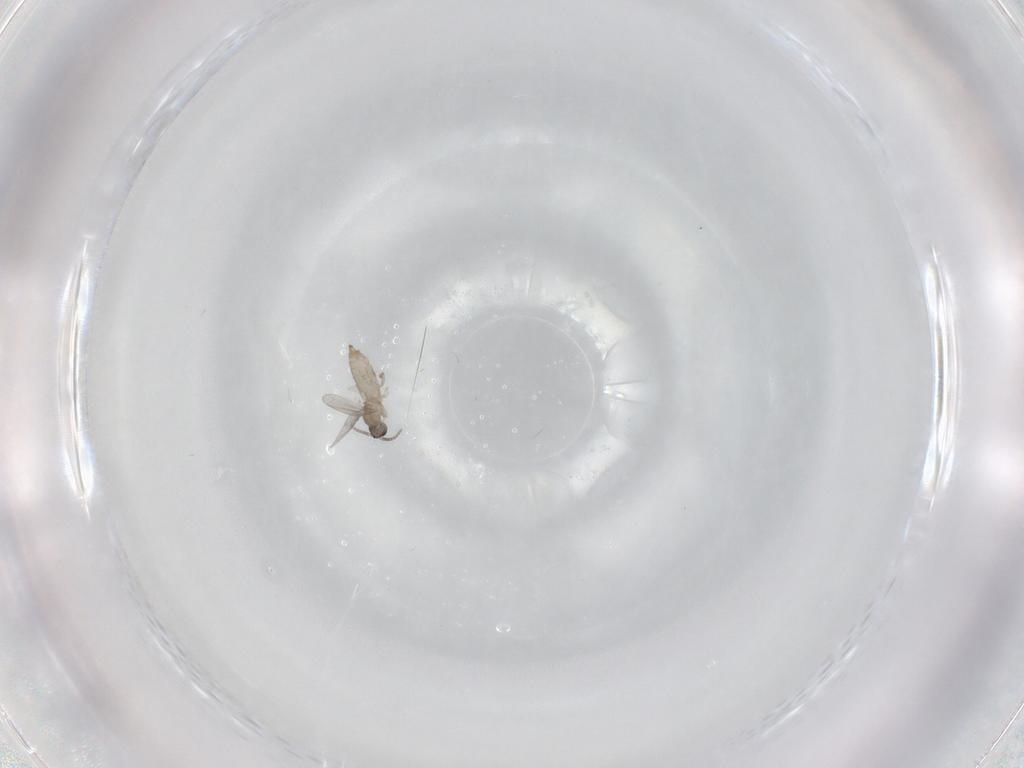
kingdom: Animalia
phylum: Arthropoda
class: Insecta
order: Diptera
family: Cecidomyiidae
